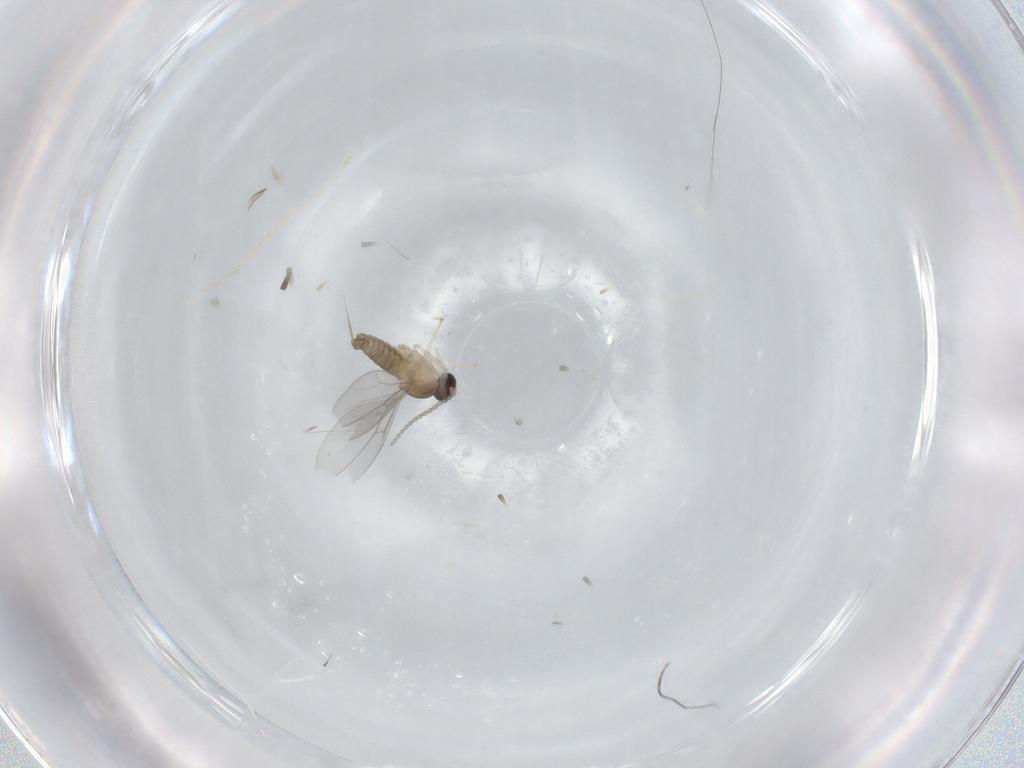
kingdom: Animalia
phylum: Arthropoda
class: Insecta
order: Diptera
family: Cecidomyiidae
